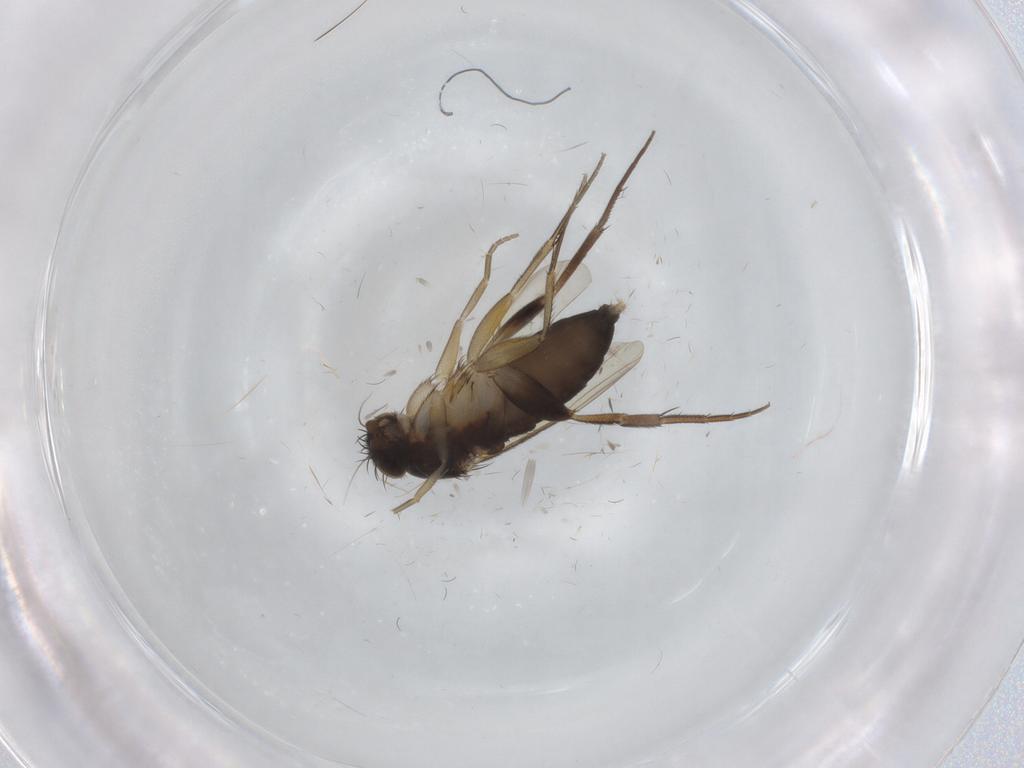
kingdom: Animalia
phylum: Arthropoda
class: Insecta
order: Diptera
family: Phoridae
